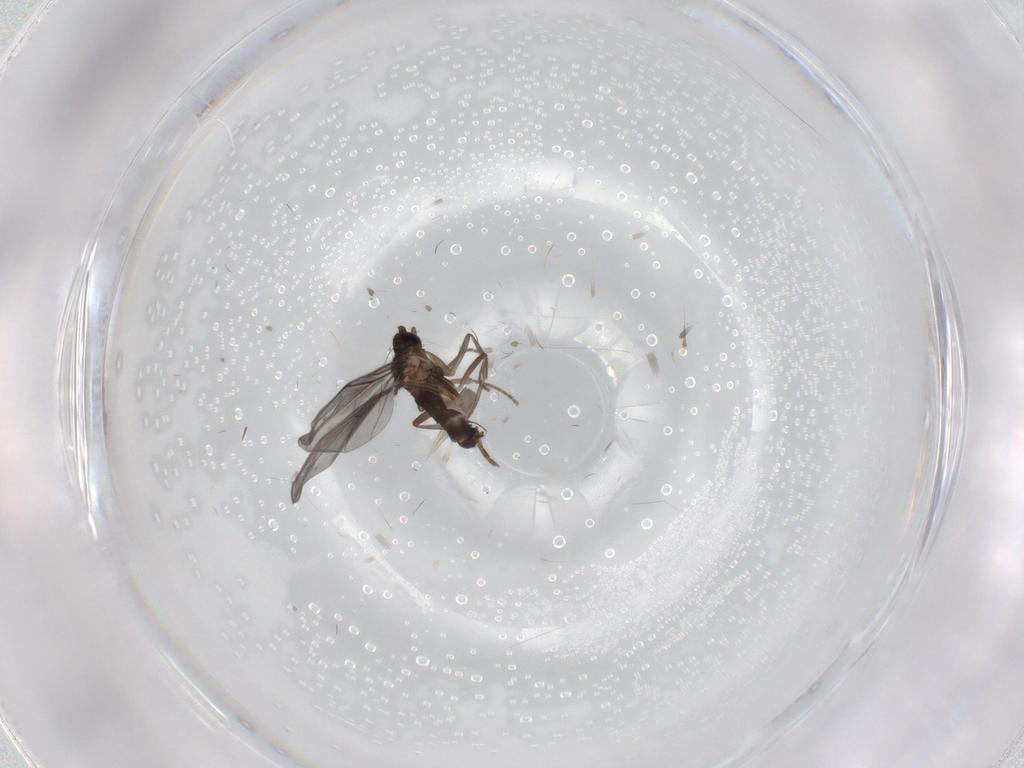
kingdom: Animalia
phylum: Arthropoda
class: Insecta
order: Diptera
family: Phoridae
